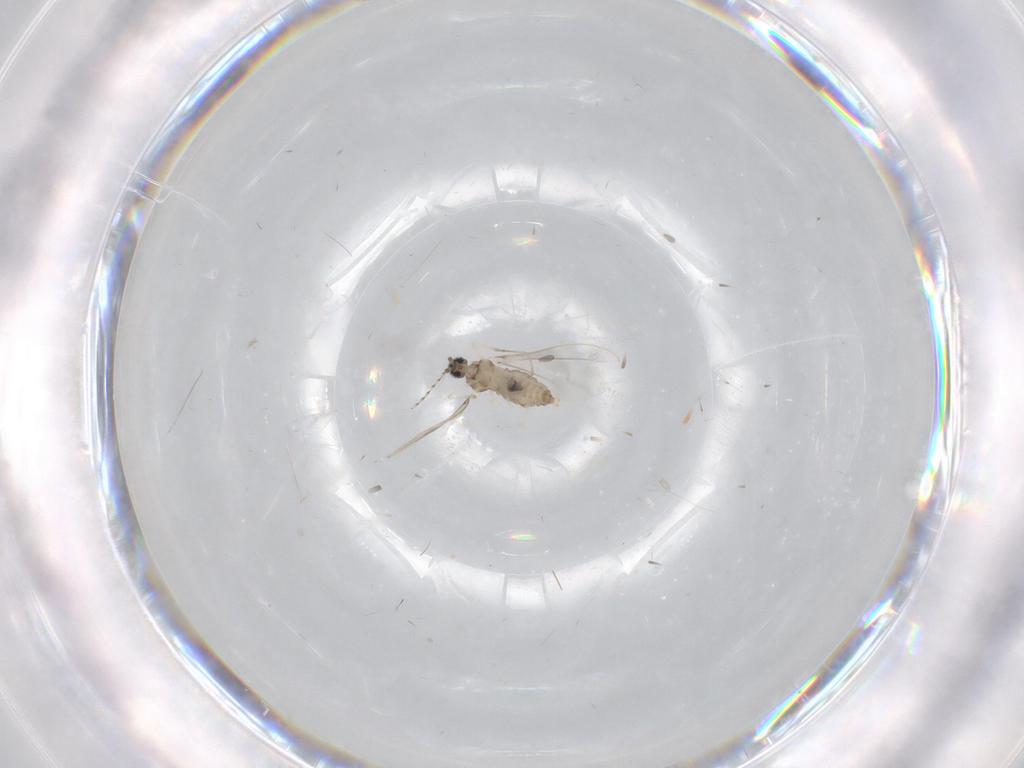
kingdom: Animalia
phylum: Arthropoda
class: Insecta
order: Diptera
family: Cecidomyiidae
